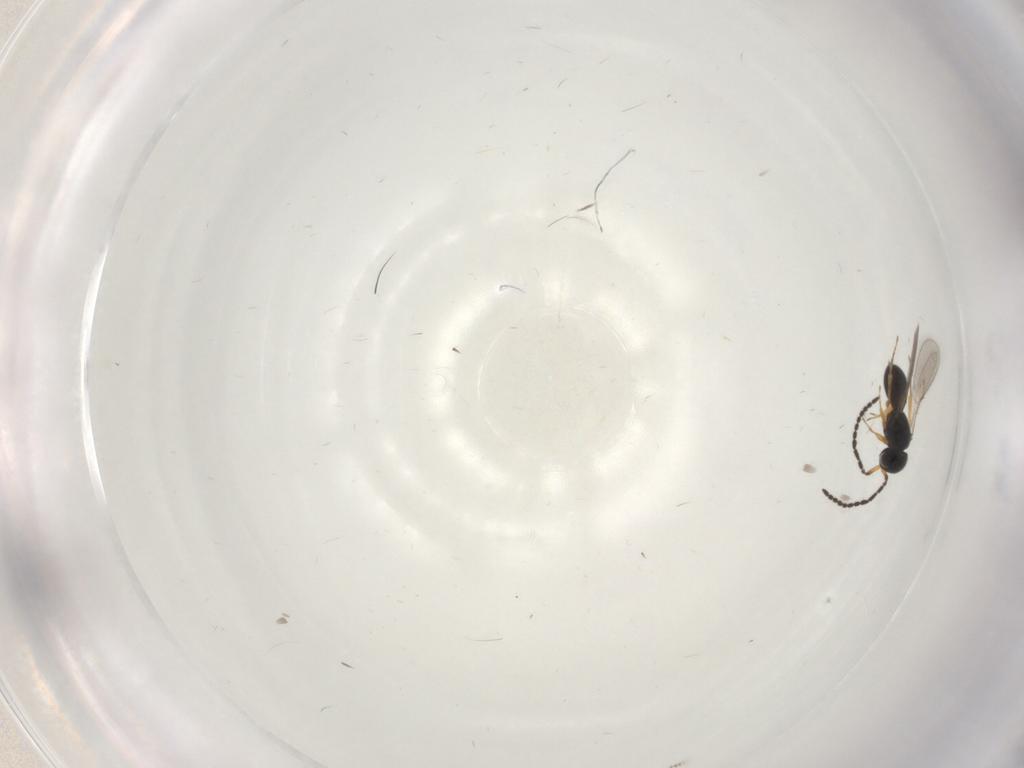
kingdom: Animalia
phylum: Arthropoda
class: Insecta
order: Hymenoptera
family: Scelionidae
